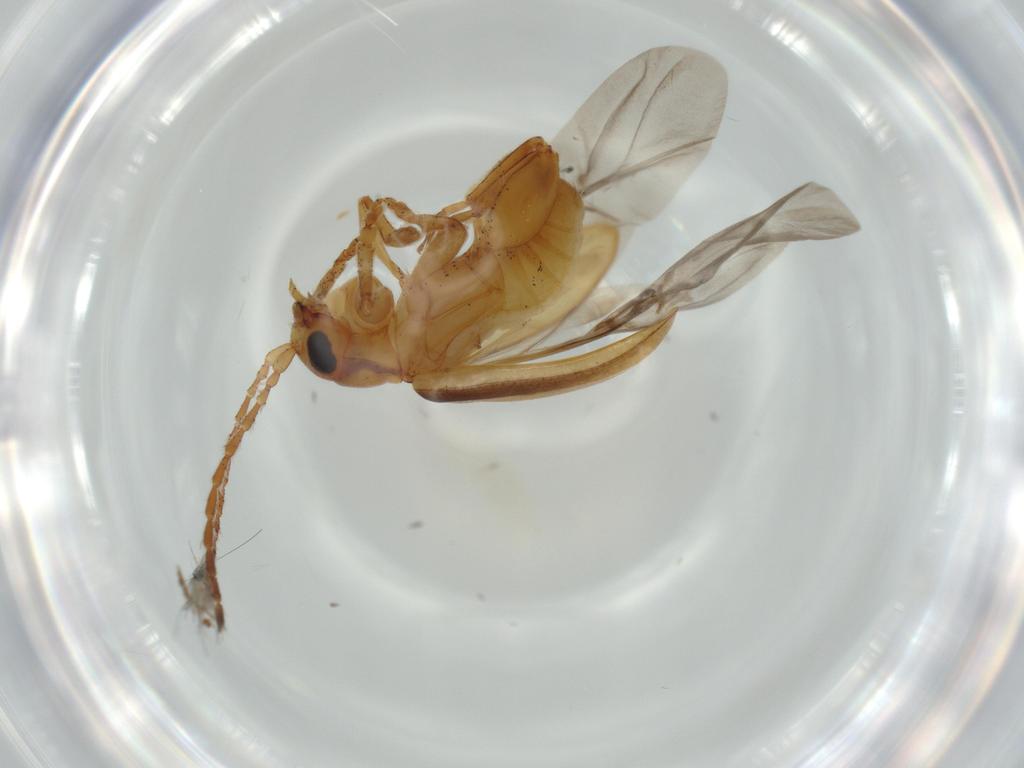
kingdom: Animalia
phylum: Arthropoda
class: Insecta
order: Coleoptera
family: Chrysomelidae
